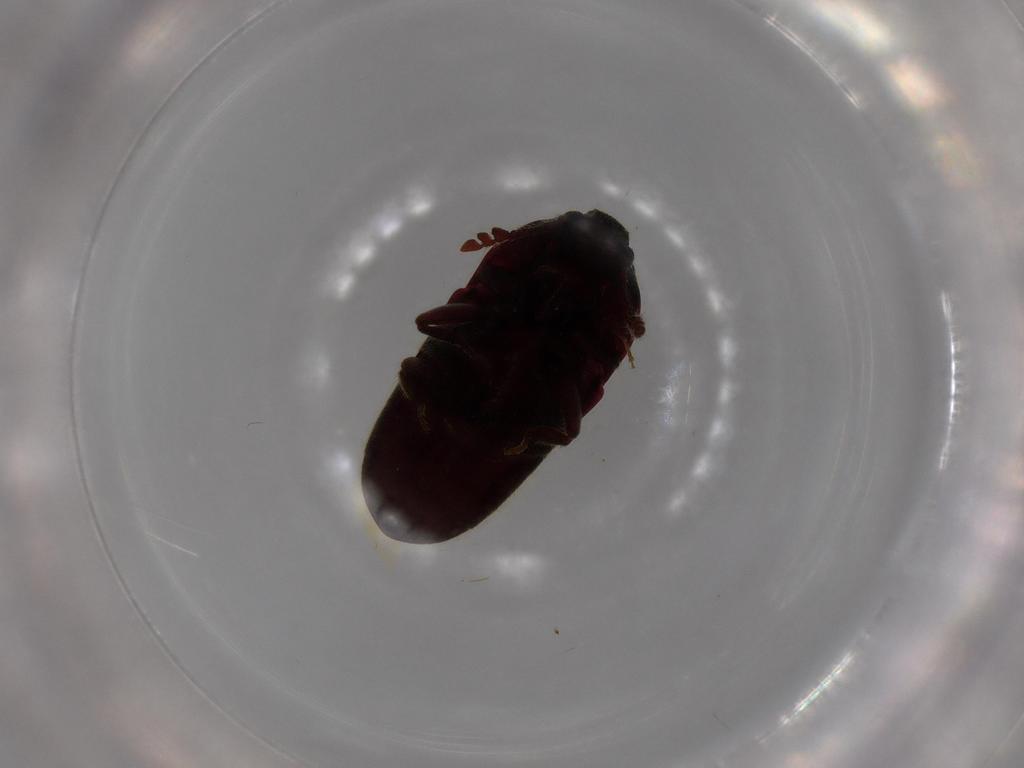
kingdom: Animalia
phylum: Arthropoda
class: Insecta
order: Coleoptera
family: Throscidae
